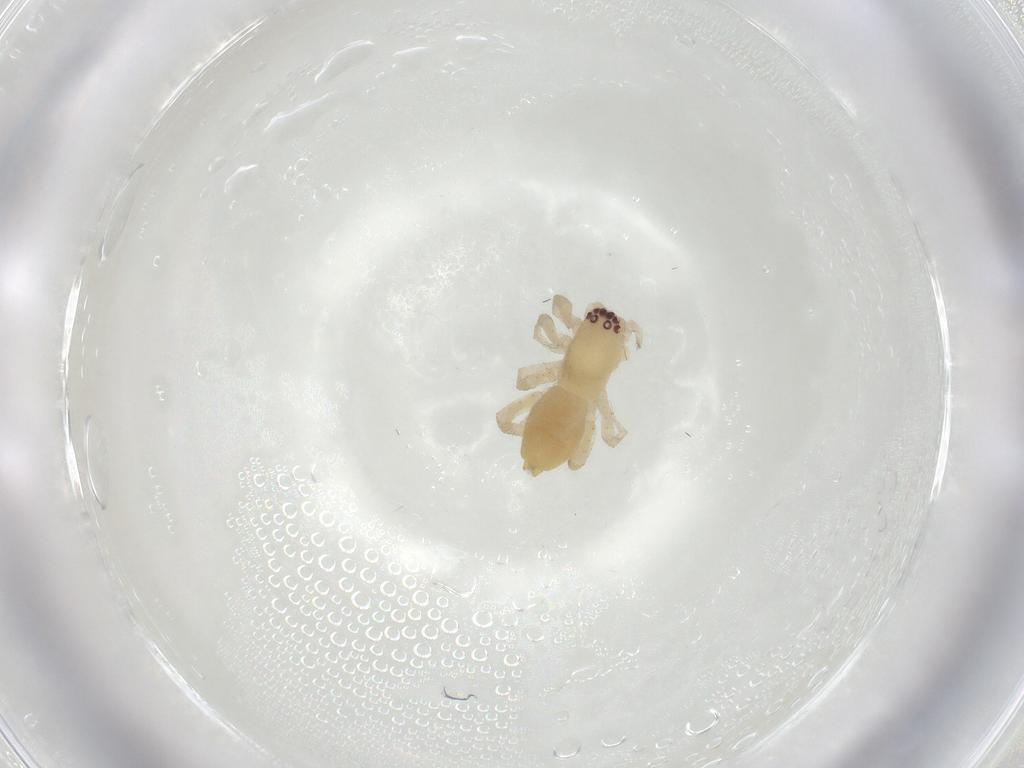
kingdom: Animalia
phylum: Arthropoda
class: Arachnida
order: Araneae
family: Clubionidae
